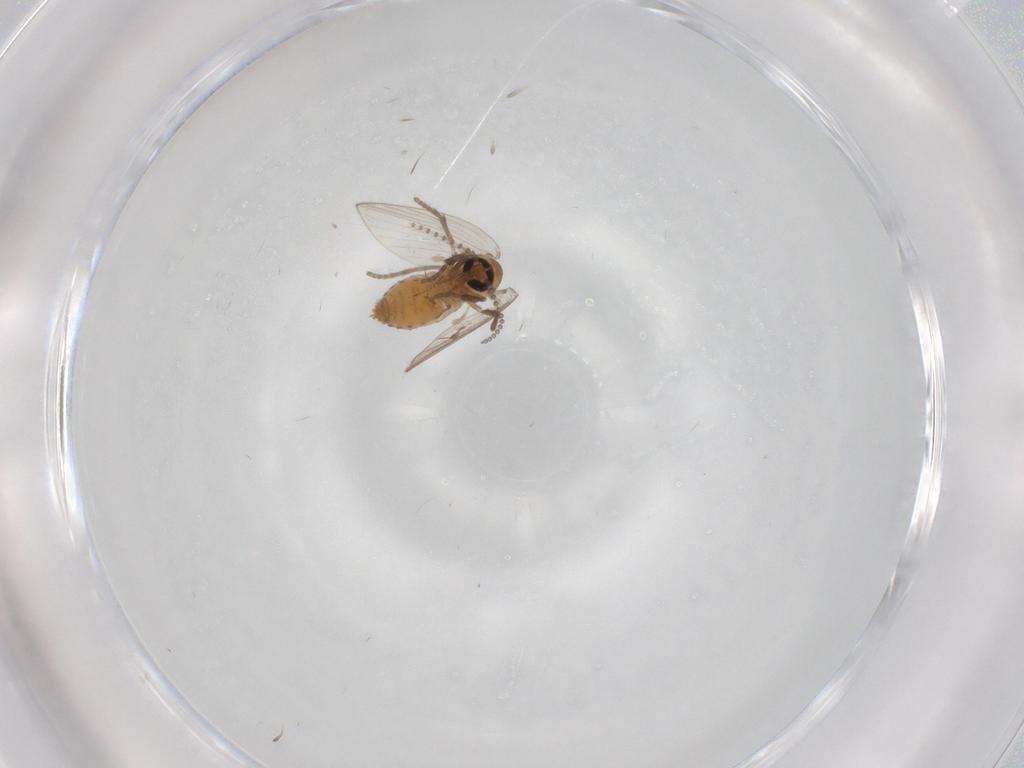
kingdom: Animalia
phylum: Arthropoda
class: Insecta
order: Diptera
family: Psychodidae
